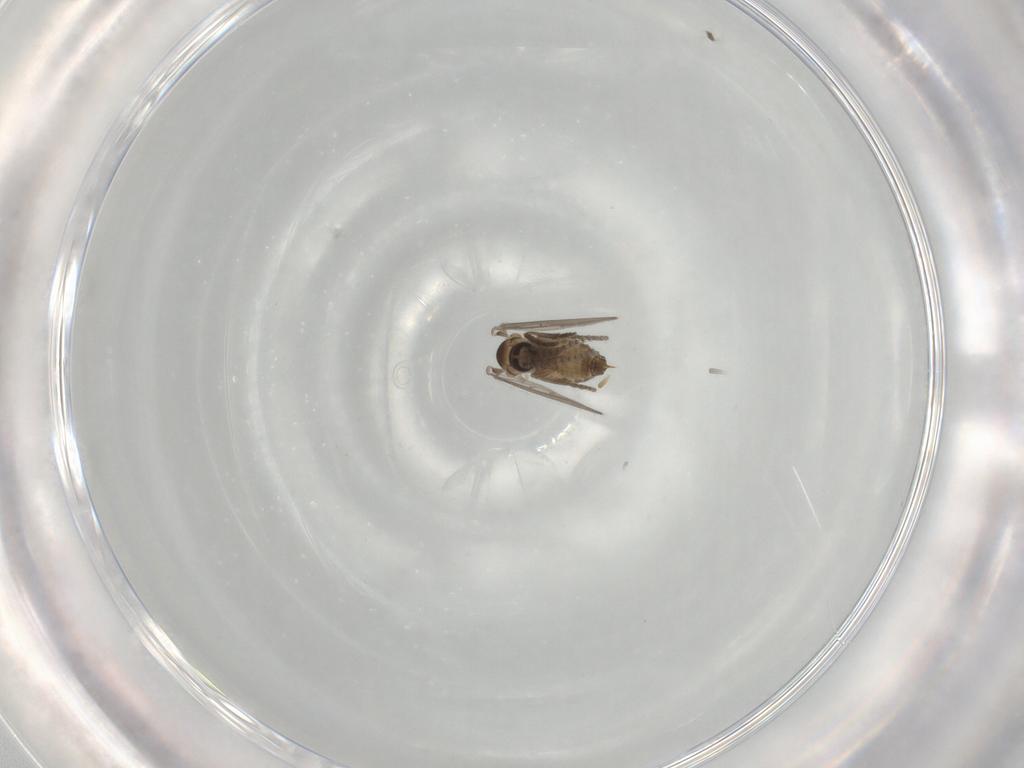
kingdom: Animalia
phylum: Arthropoda
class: Insecta
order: Diptera
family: Psychodidae
